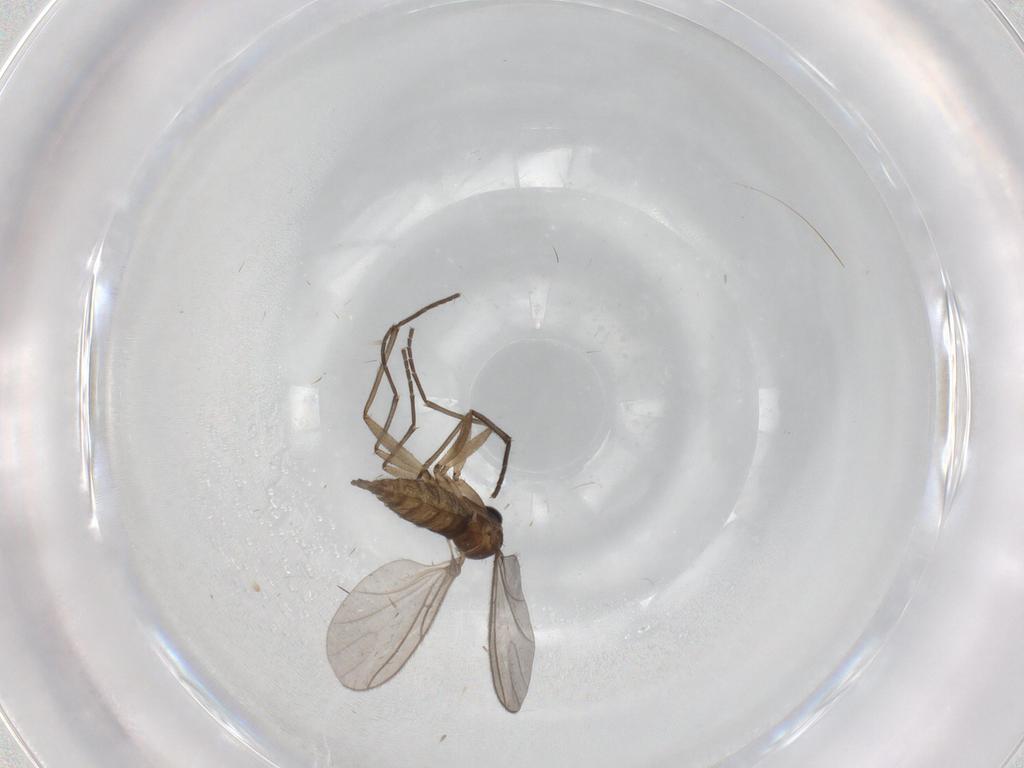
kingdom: Animalia
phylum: Arthropoda
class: Insecta
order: Diptera
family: Sciaridae
